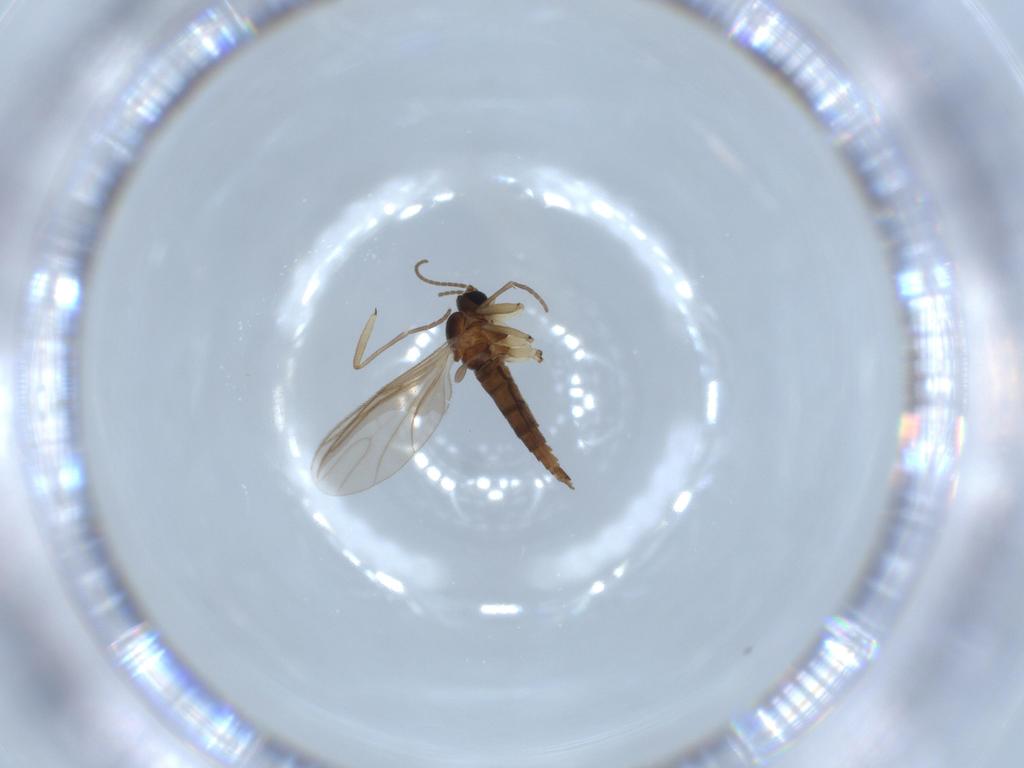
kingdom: Animalia
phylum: Arthropoda
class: Insecta
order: Diptera
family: Sciaridae
